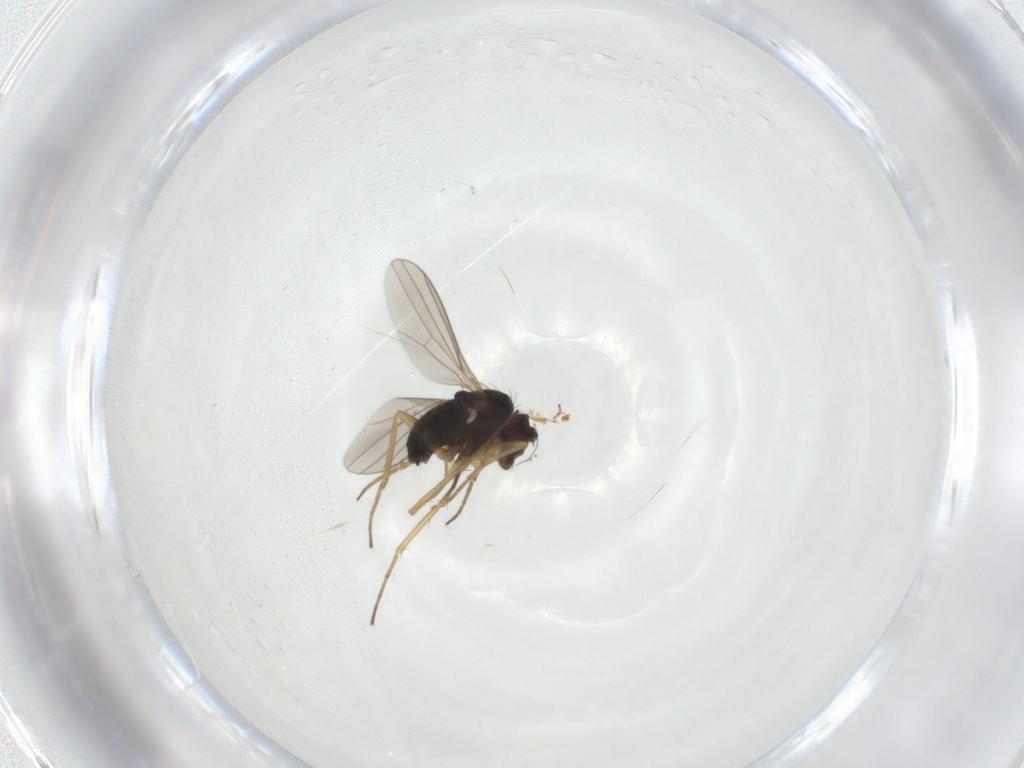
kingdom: Animalia
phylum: Arthropoda
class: Insecta
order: Diptera
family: Dolichopodidae
